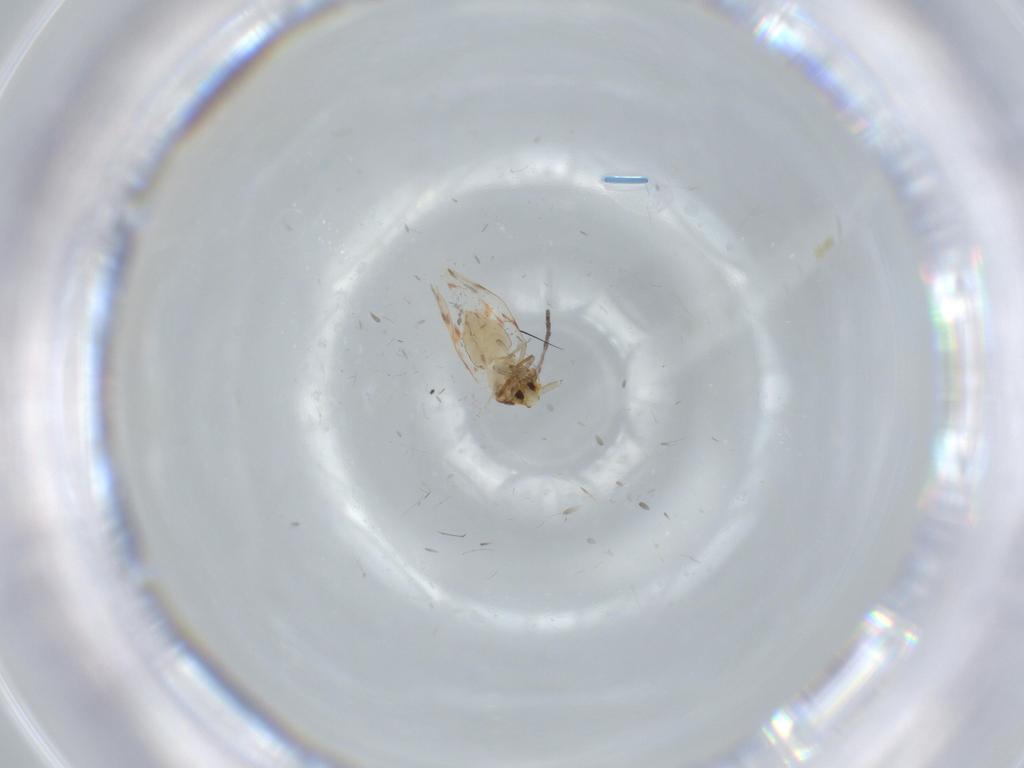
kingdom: Animalia
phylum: Arthropoda
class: Insecta
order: Hemiptera
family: Aleyrodidae
